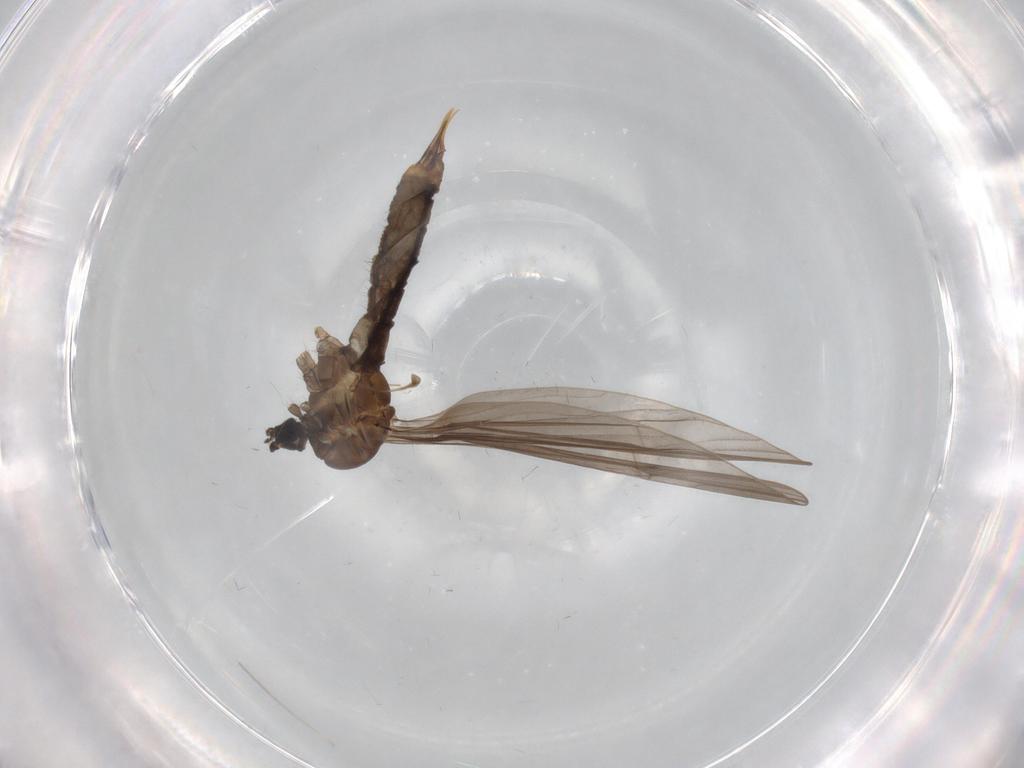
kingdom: Animalia
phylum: Arthropoda
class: Insecta
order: Diptera
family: Limoniidae
